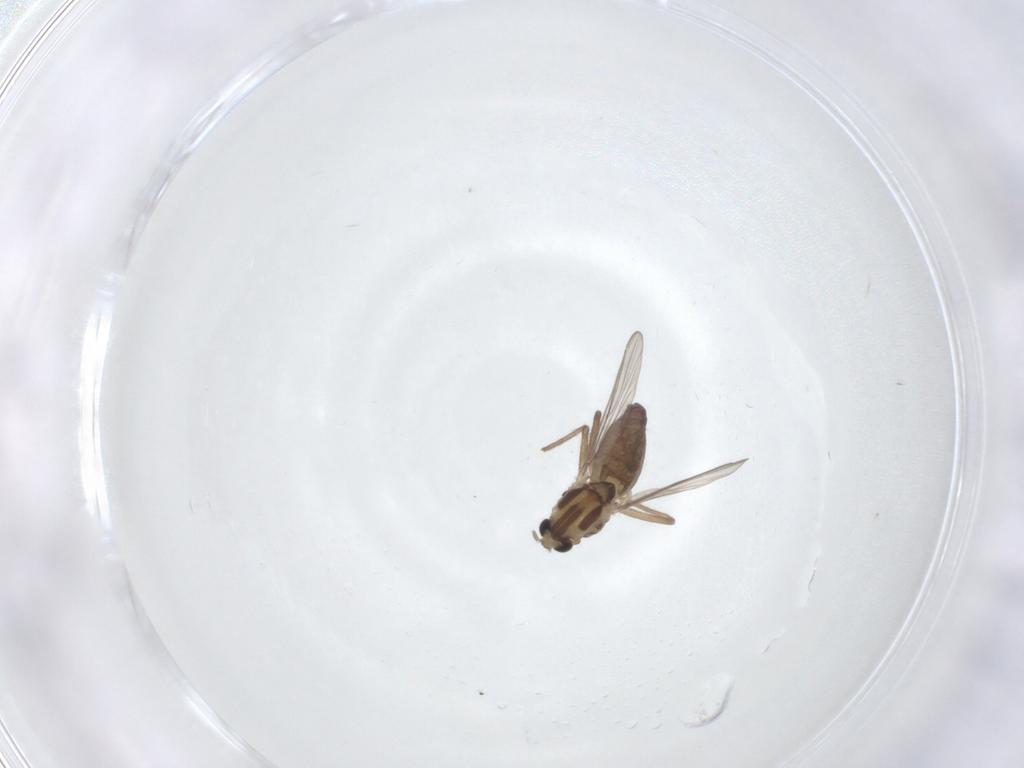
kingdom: Animalia
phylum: Arthropoda
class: Insecta
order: Diptera
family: Chironomidae
